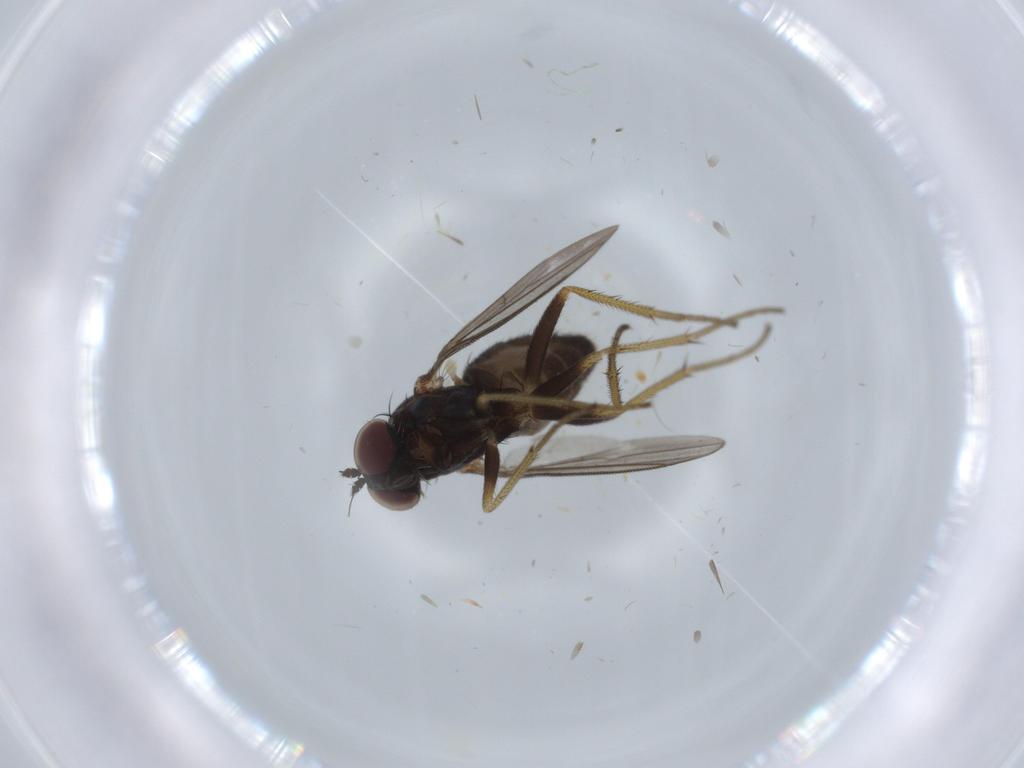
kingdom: Animalia
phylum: Arthropoda
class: Insecta
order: Diptera
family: Dolichopodidae
